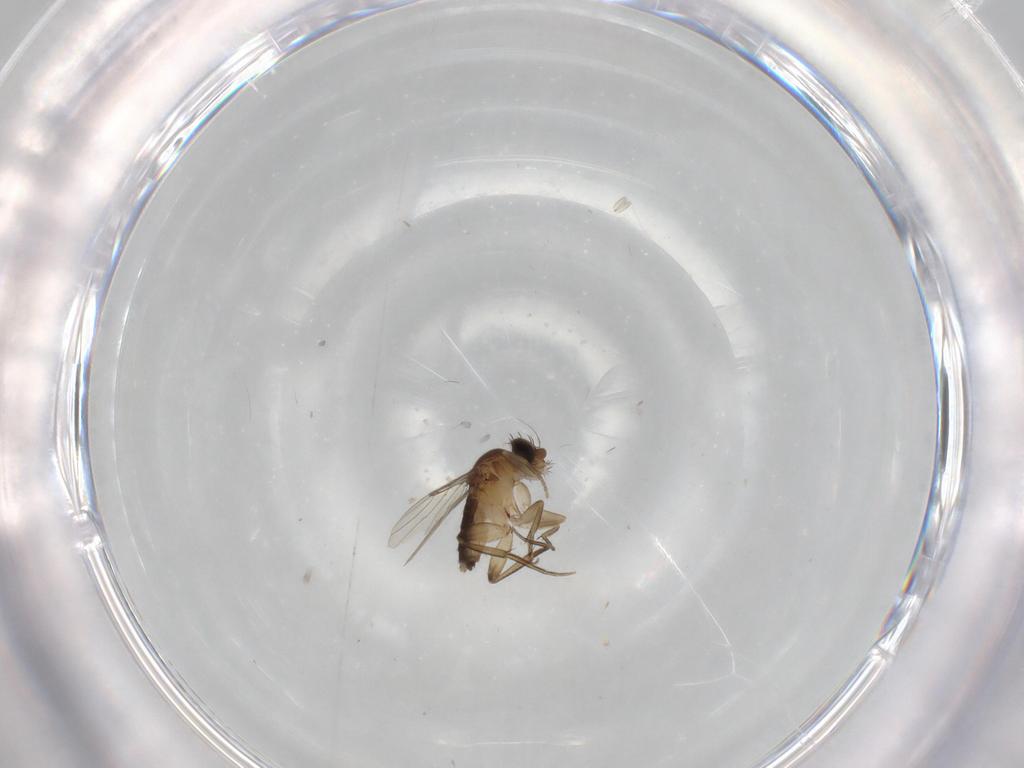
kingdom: Animalia
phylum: Arthropoda
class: Insecta
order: Diptera
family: Phoridae
